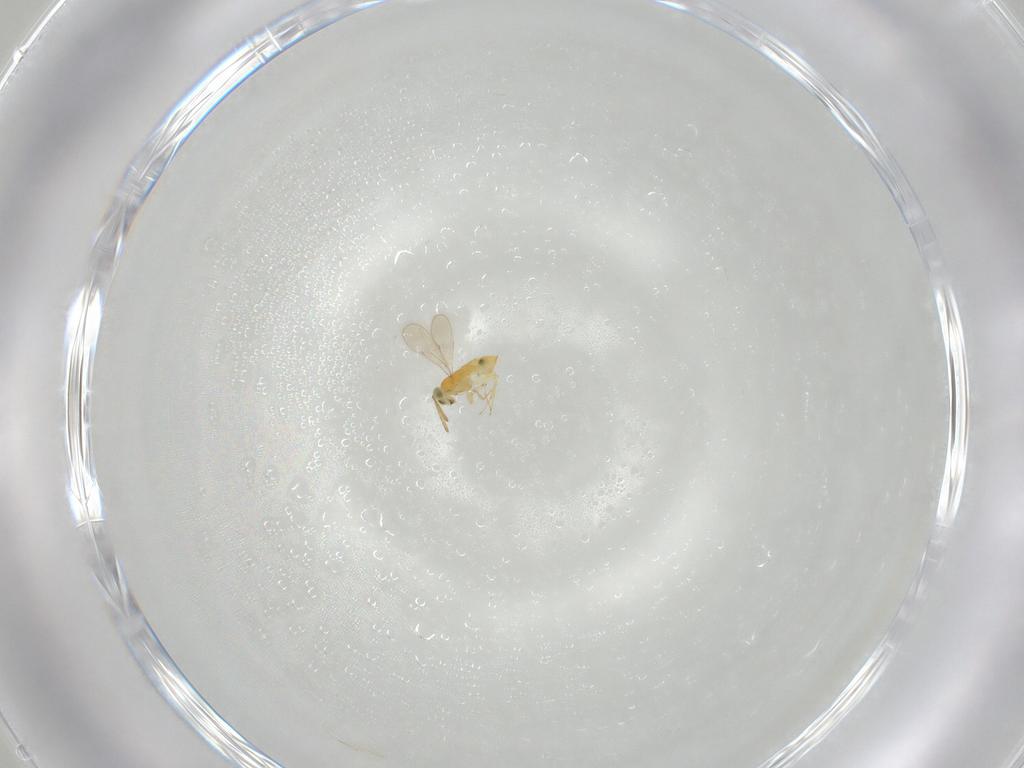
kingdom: Animalia
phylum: Arthropoda
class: Insecta
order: Hymenoptera
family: Aphelinidae
